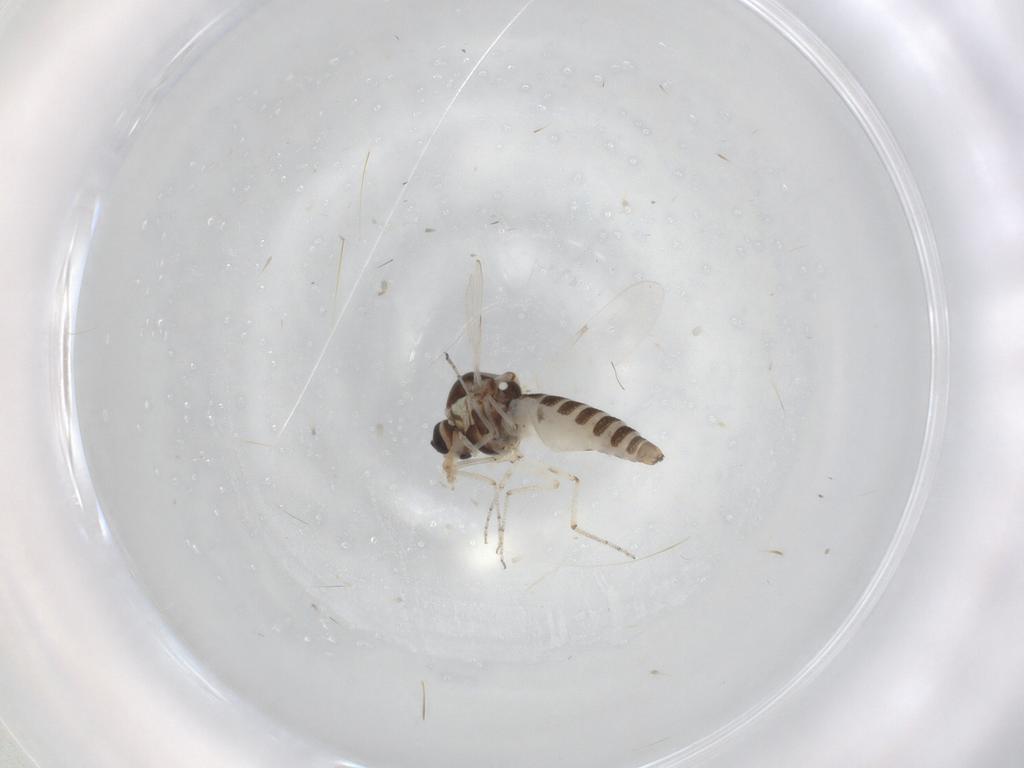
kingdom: Animalia
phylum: Arthropoda
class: Insecta
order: Diptera
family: Ceratopogonidae
